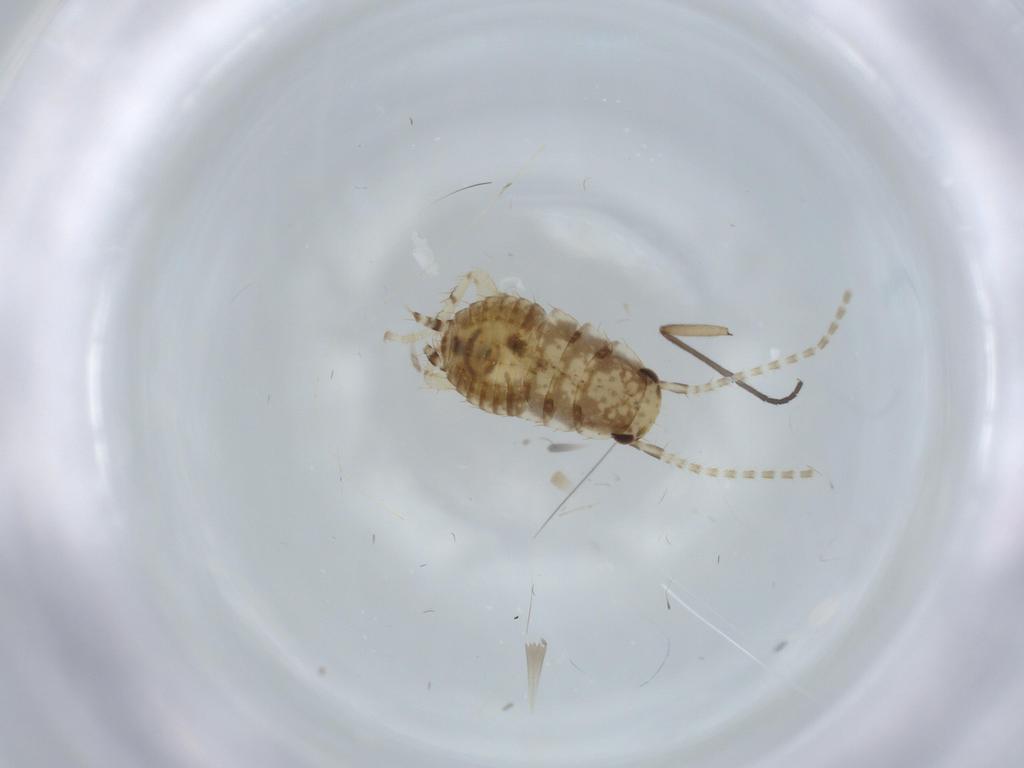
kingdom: Animalia
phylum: Arthropoda
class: Insecta
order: Blattodea
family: Ectobiidae
